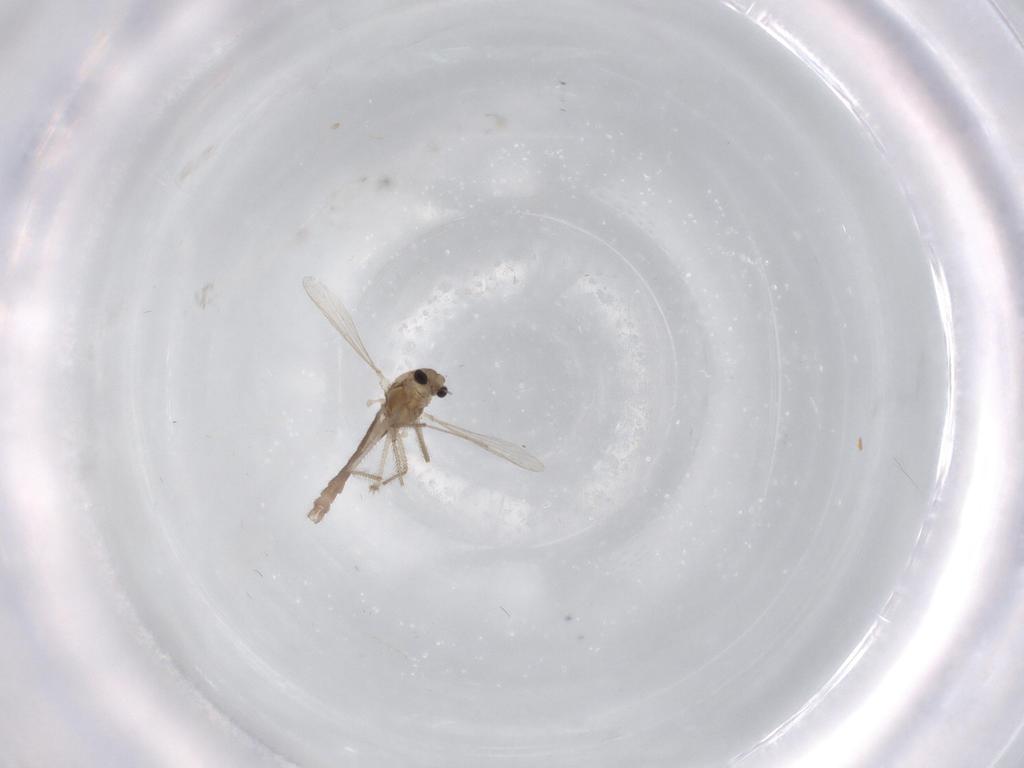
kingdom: Animalia
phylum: Arthropoda
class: Insecta
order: Diptera
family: Chironomidae
